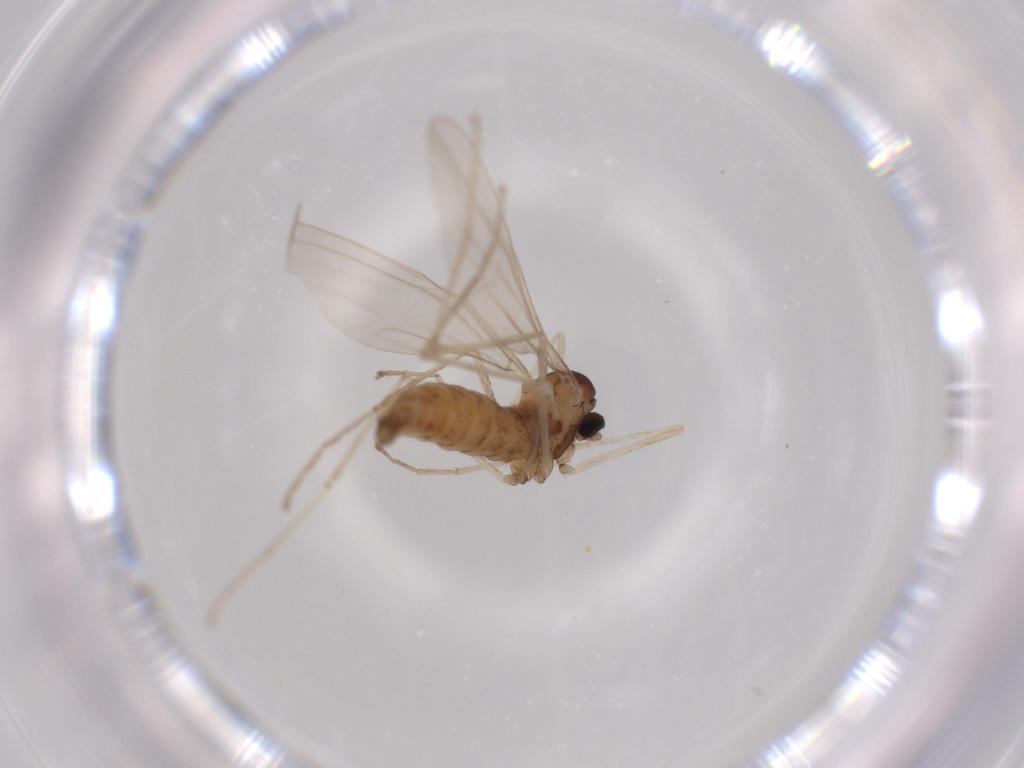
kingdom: Animalia
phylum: Arthropoda
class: Insecta
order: Diptera
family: Cecidomyiidae
